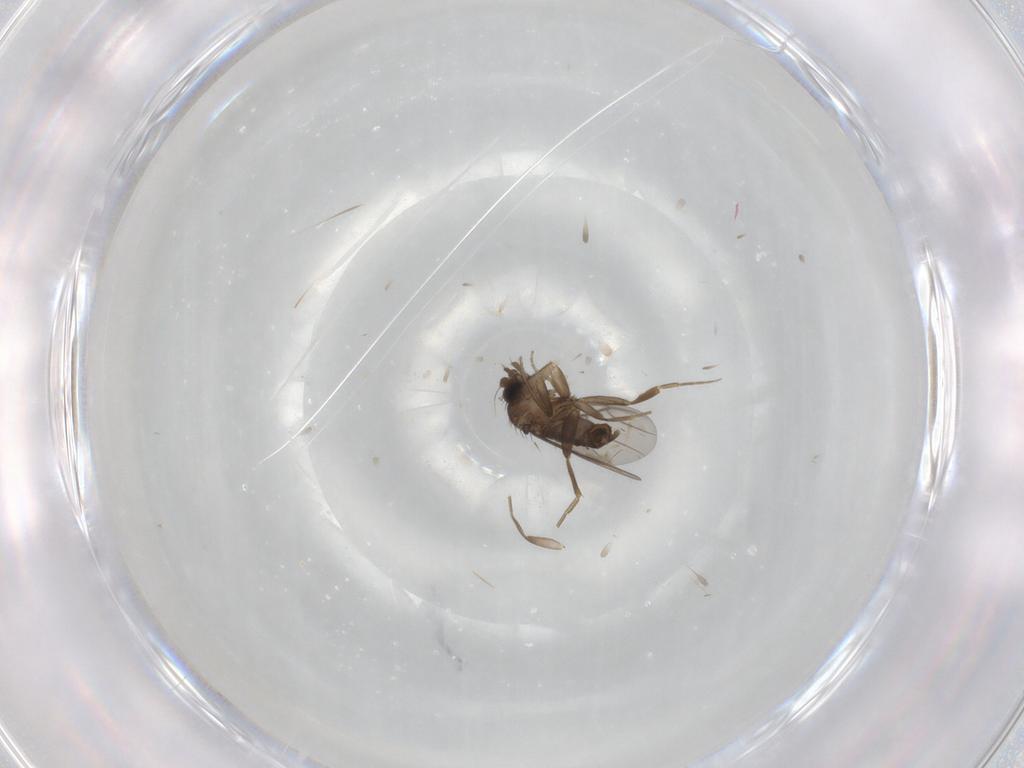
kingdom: Animalia
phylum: Arthropoda
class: Insecta
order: Diptera
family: Phoridae
